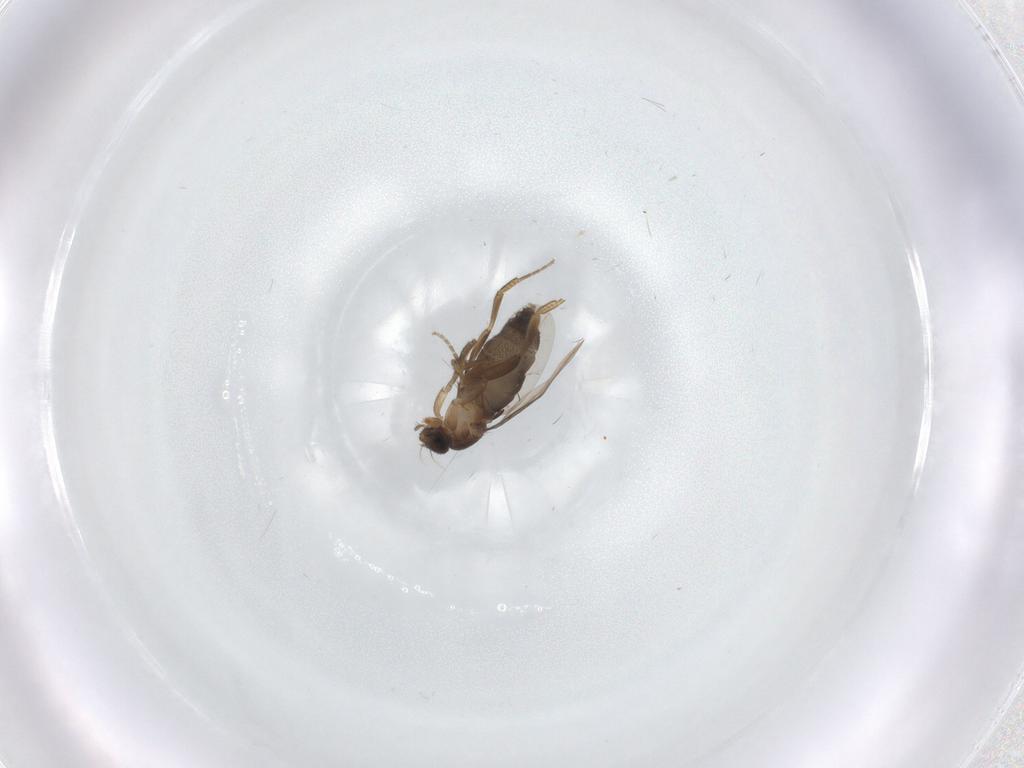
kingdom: Animalia
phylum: Arthropoda
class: Insecta
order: Diptera
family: Phoridae
